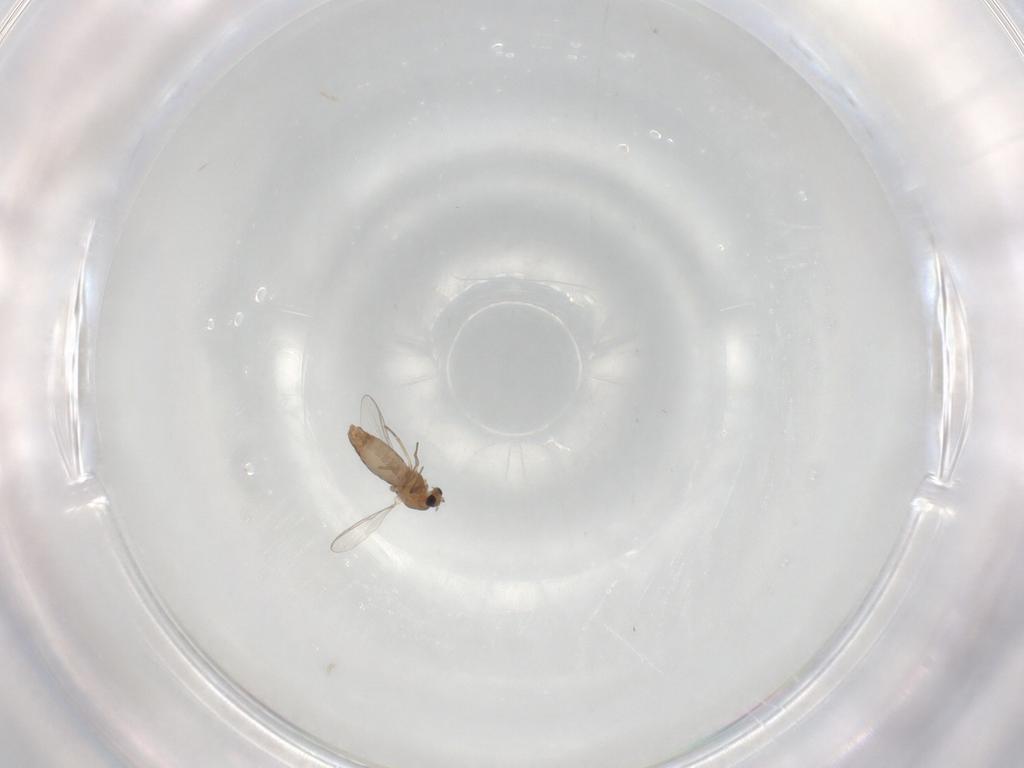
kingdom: Animalia
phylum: Arthropoda
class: Insecta
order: Diptera
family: Chironomidae
